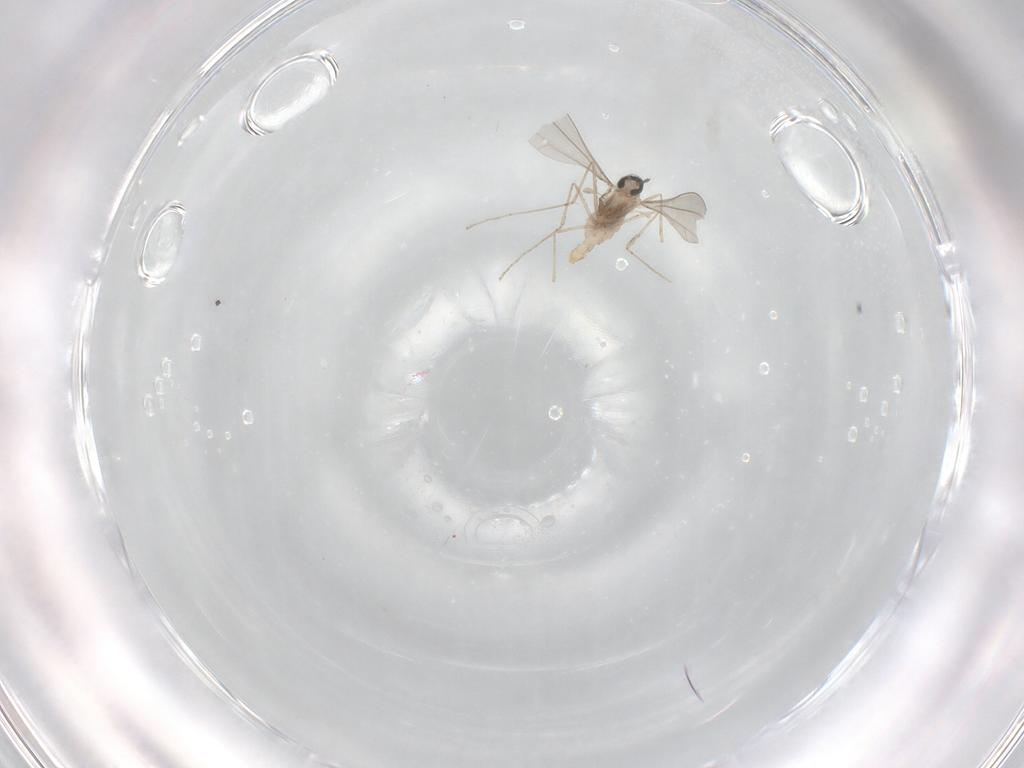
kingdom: Animalia
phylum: Arthropoda
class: Insecta
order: Diptera
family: Cecidomyiidae
